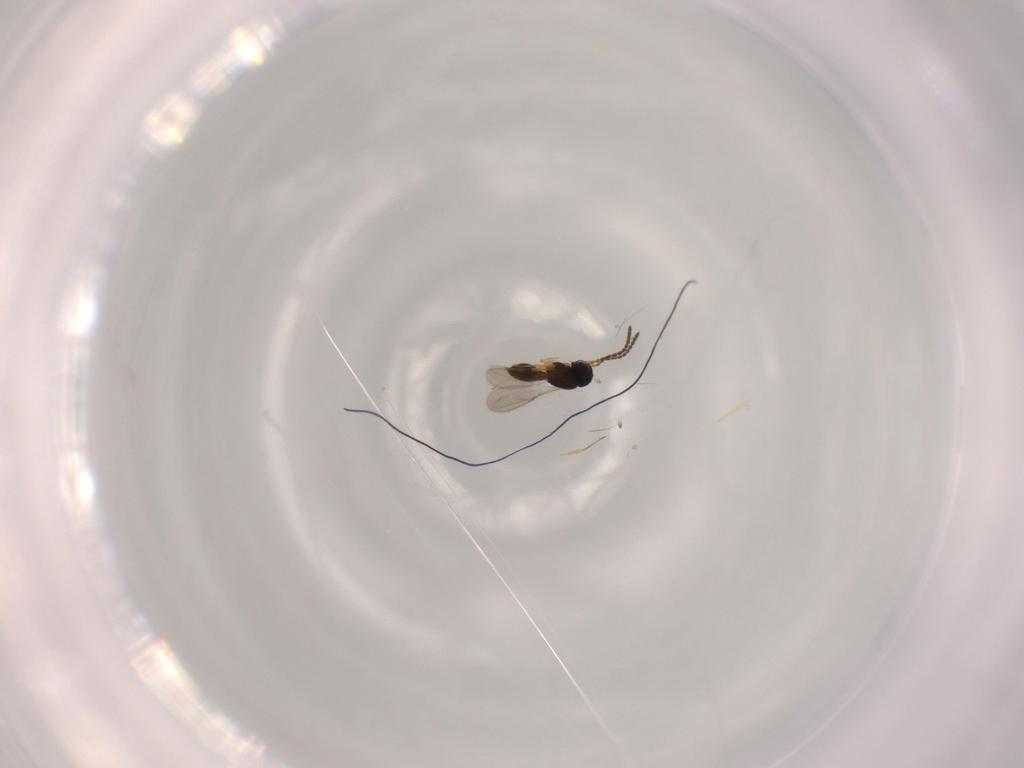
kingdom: Animalia
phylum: Arthropoda
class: Insecta
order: Hymenoptera
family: Scelionidae
